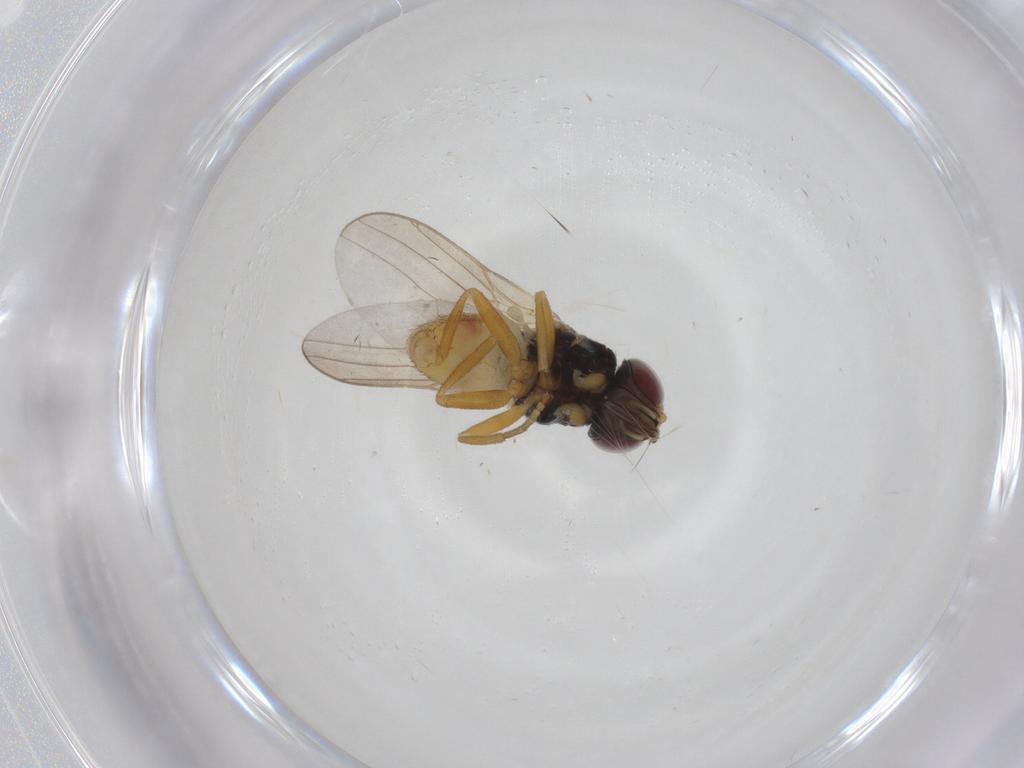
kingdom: Animalia
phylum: Arthropoda
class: Insecta
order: Diptera
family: Chloropidae
